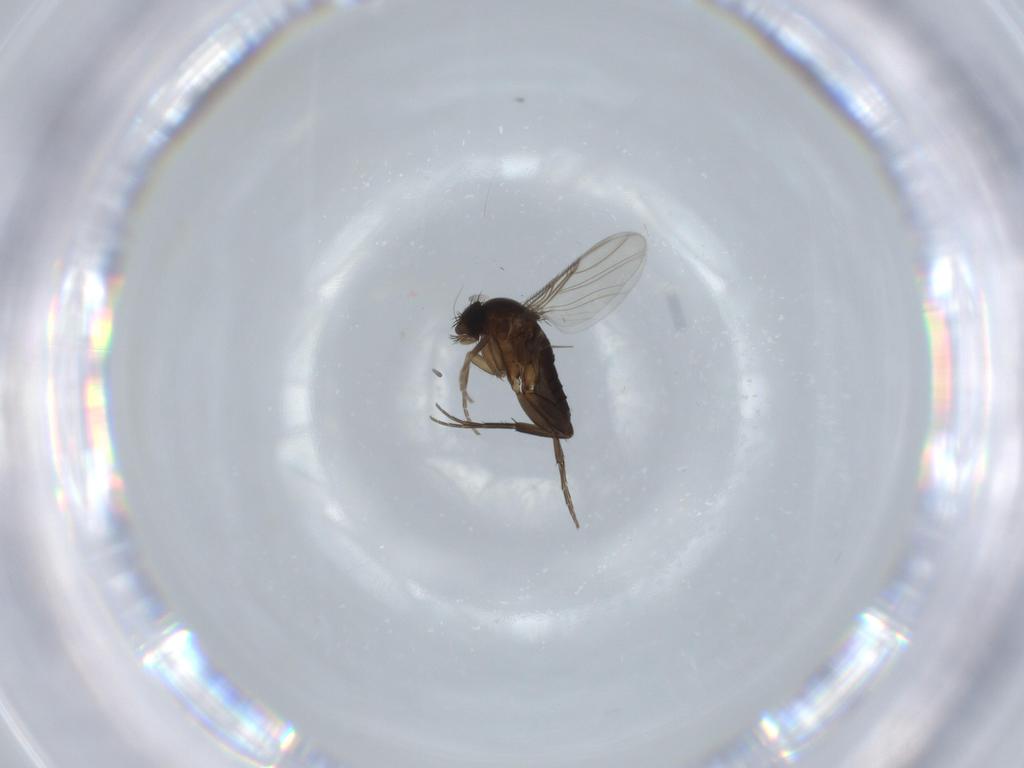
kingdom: Animalia
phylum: Arthropoda
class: Insecta
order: Diptera
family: Phoridae
